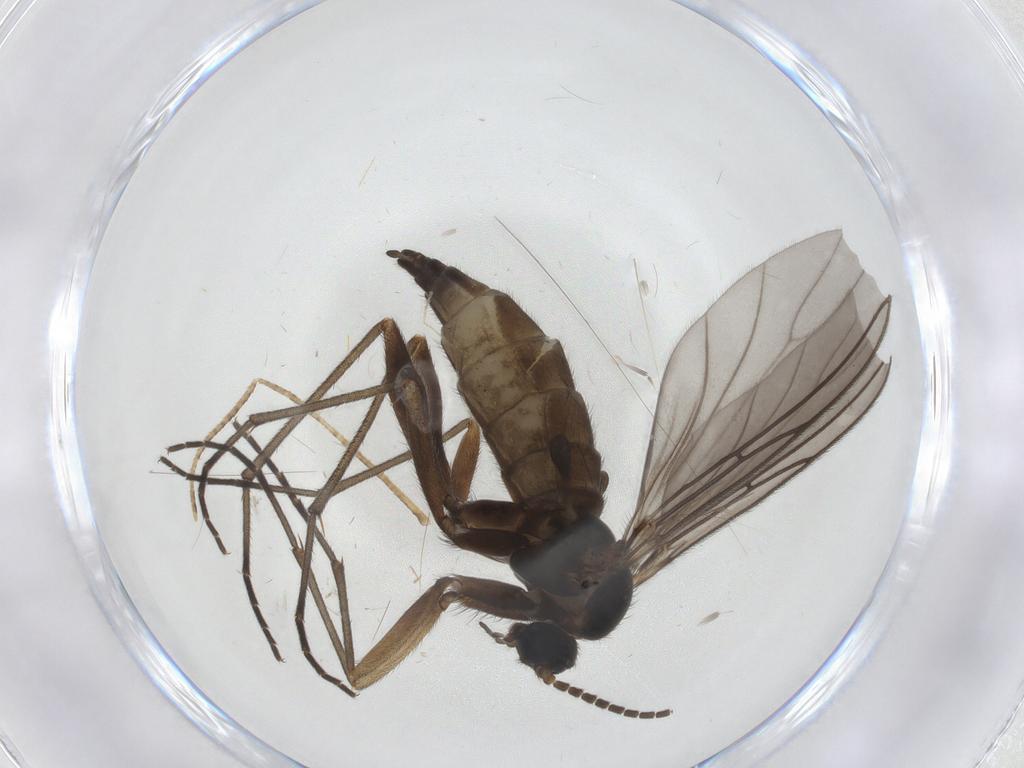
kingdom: Animalia
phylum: Arthropoda
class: Insecta
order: Diptera
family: Sciaridae
